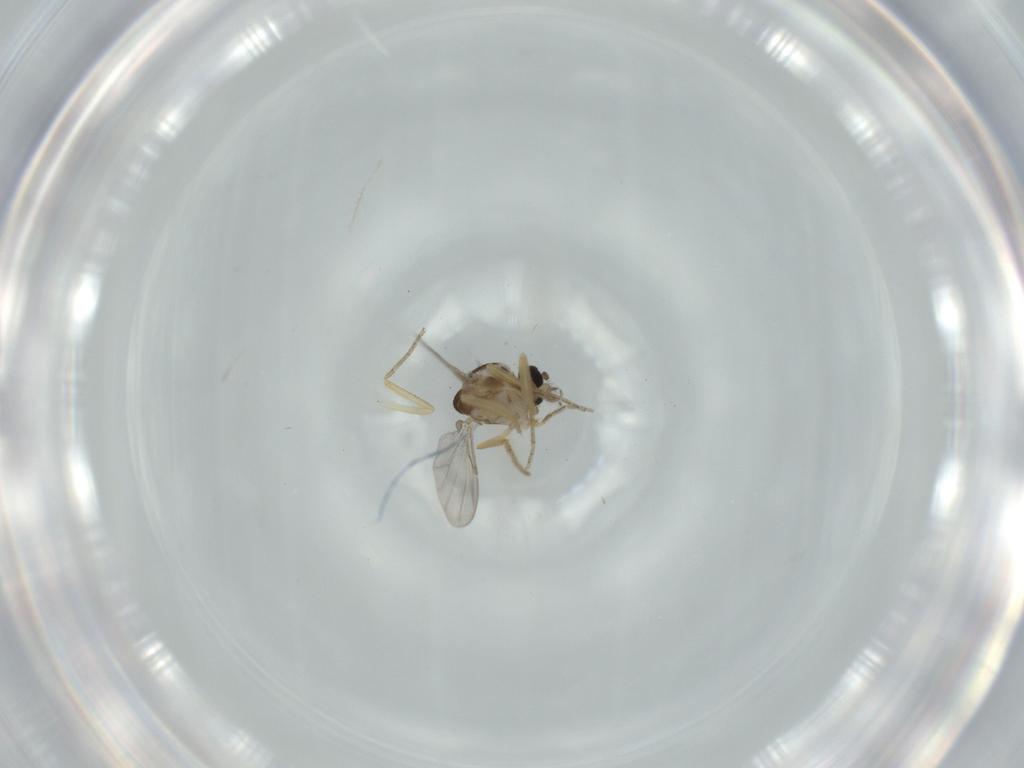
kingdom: Animalia
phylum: Arthropoda
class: Insecta
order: Diptera
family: Ceratopogonidae
